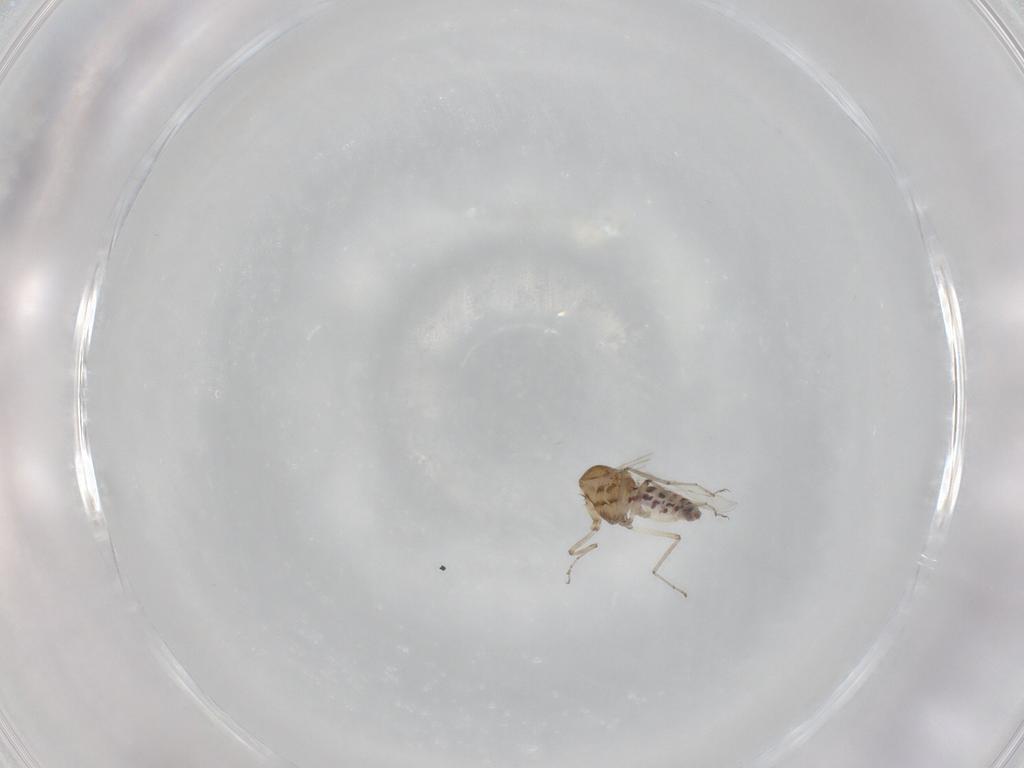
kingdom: Animalia
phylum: Arthropoda
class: Insecta
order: Diptera
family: Ceratopogonidae
